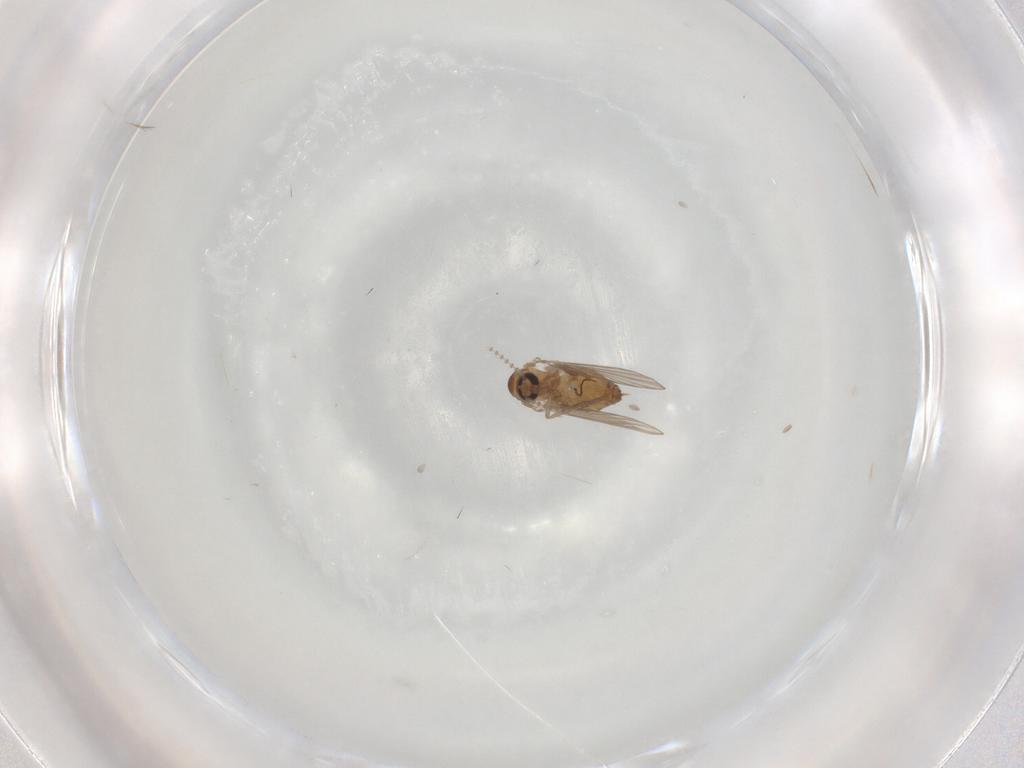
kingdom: Animalia
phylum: Arthropoda
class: Insecta
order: Diptera
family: Psychodidae
